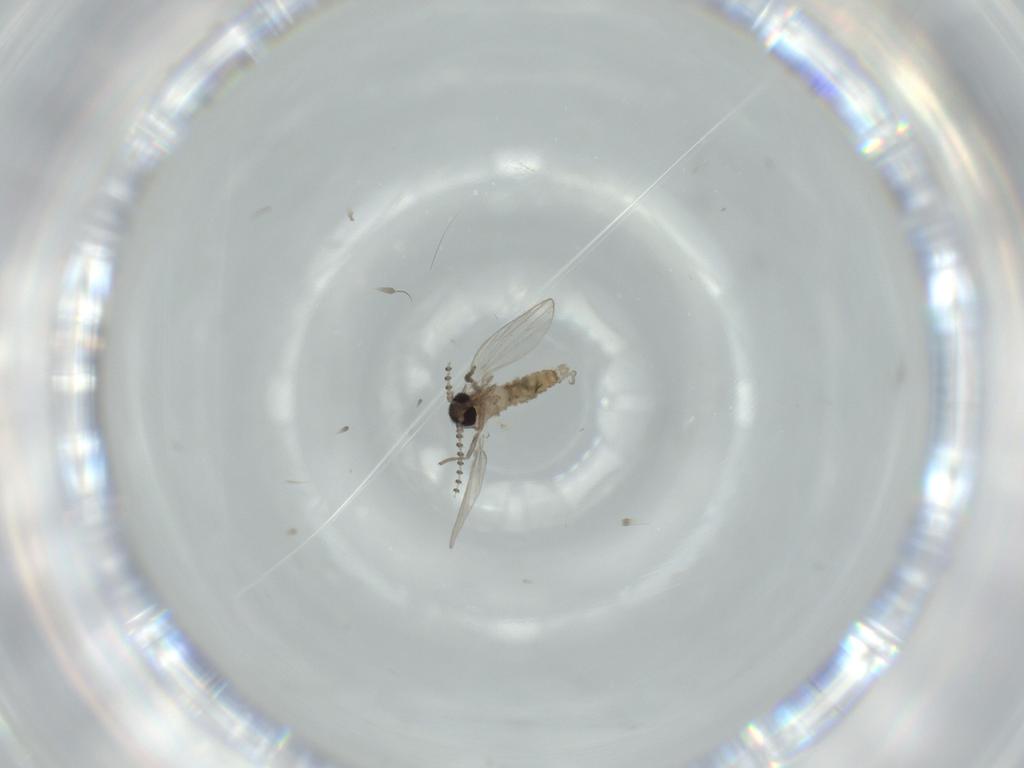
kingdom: Animalia
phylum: Arthropoda
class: Insecta
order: Diptera
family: Psychodidae
